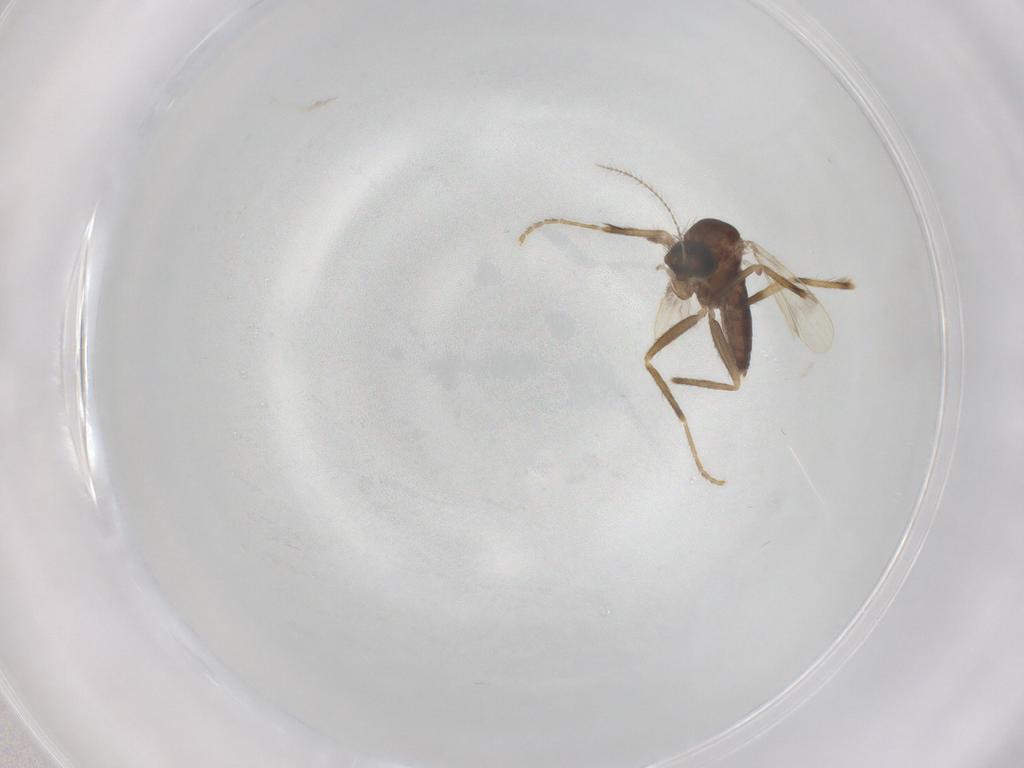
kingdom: Animalia
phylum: Arthropoda
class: Insecta
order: Diptera
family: Corethrellidae
